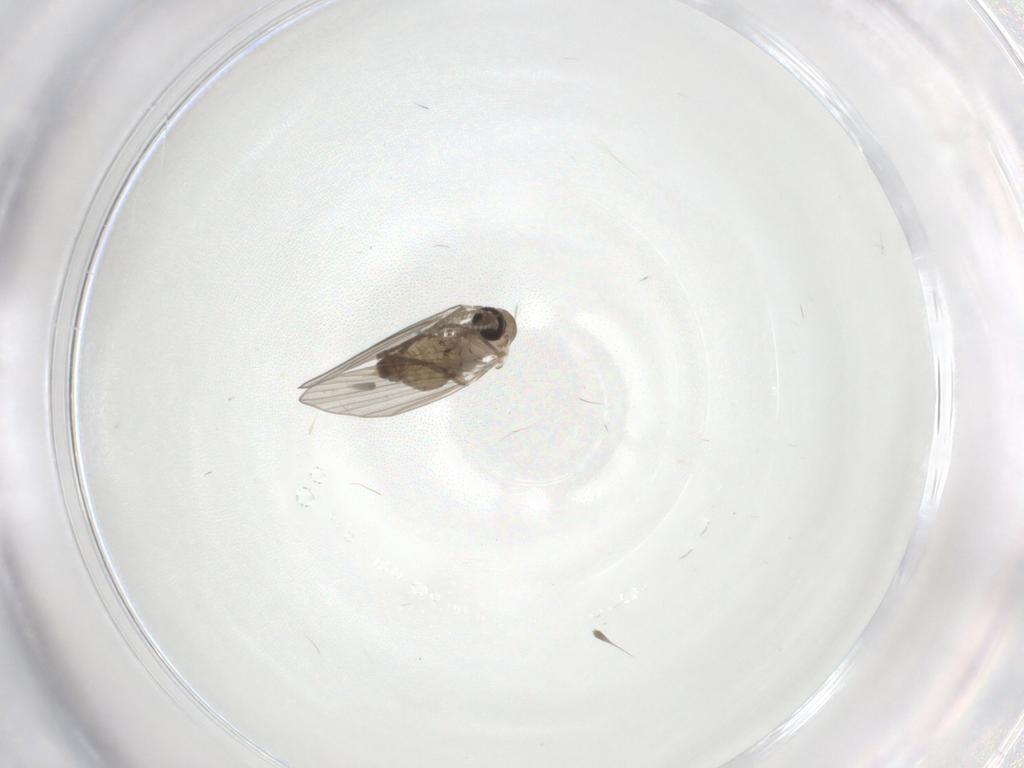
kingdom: Animalia
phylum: Arthropoda
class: Insecta
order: Diptera
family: Psychodidae
